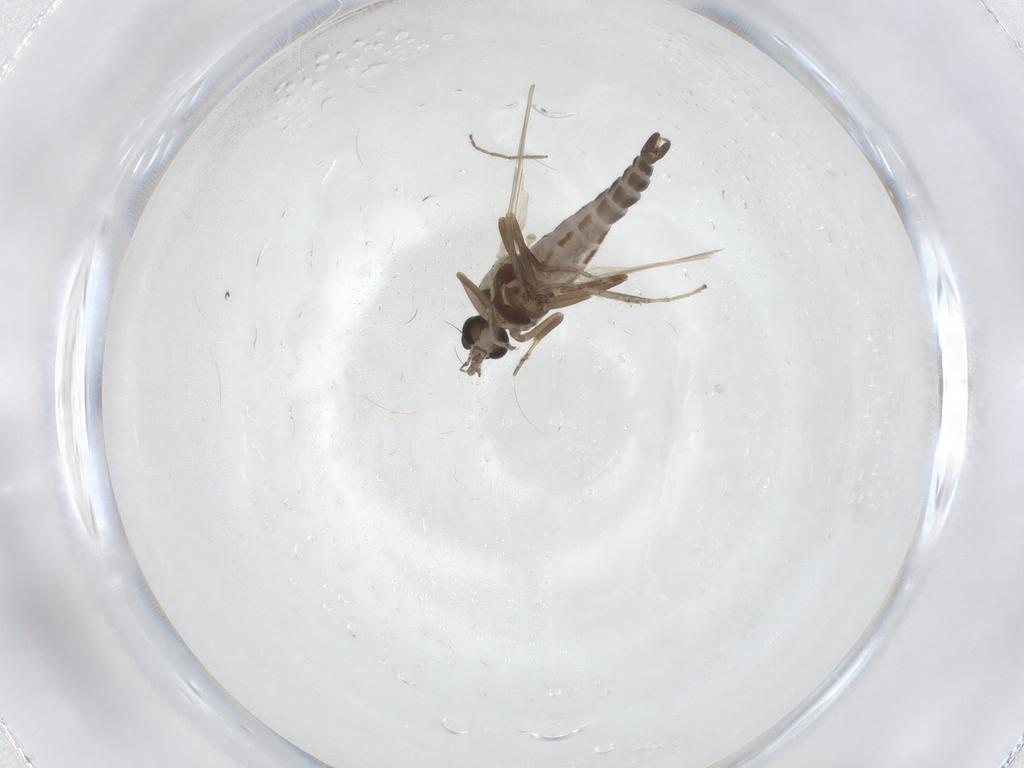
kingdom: Animalia
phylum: Arthropoda
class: Insecta
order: Diptera
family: Ceratopogonidae
